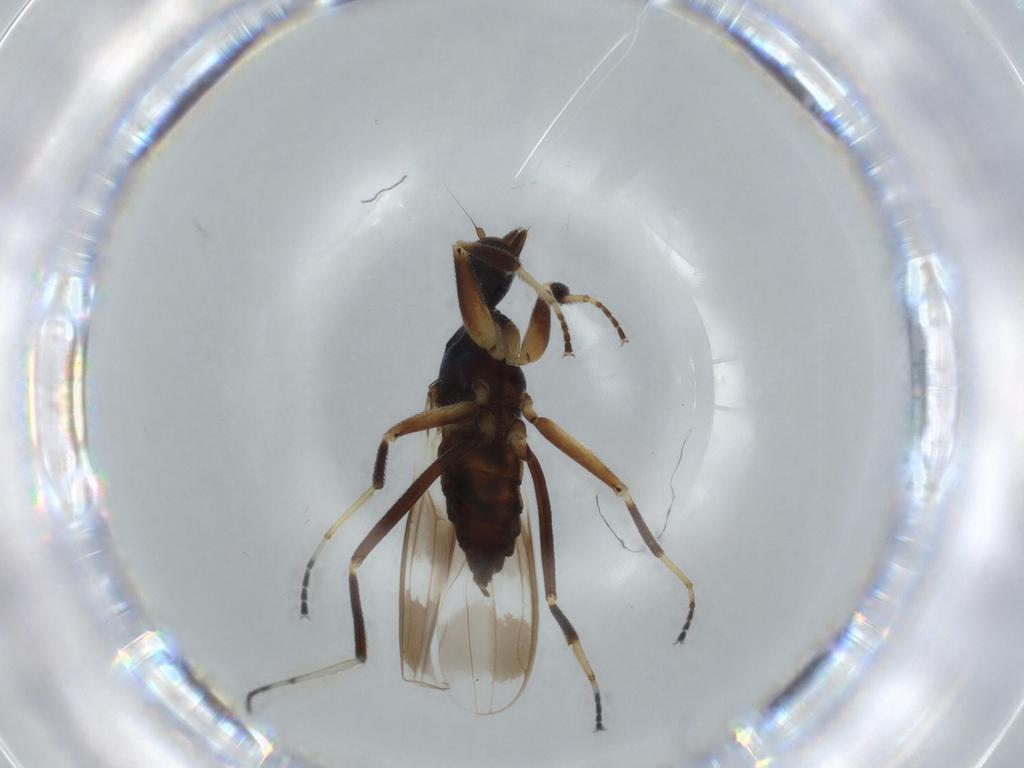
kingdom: Animalia
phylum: Arthropoda
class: Insecta
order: Diptera
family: Hybotidae
